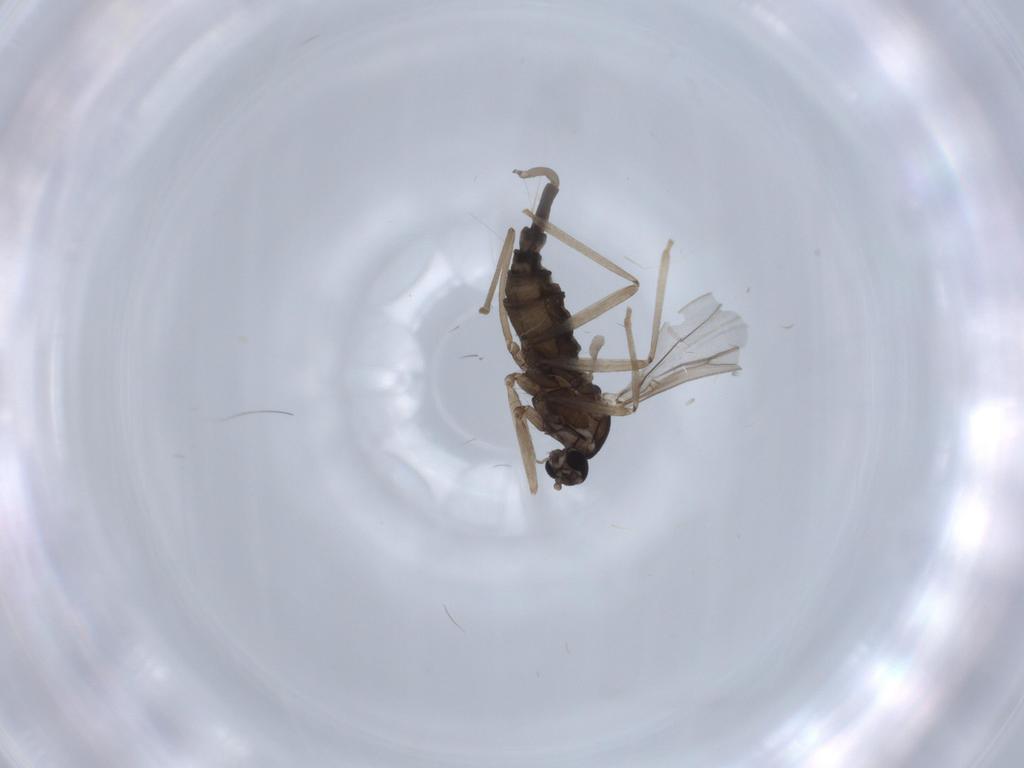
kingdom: Animalia
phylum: Arthropoda
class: Insecta
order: Diptera
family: Cecidomyiidae
